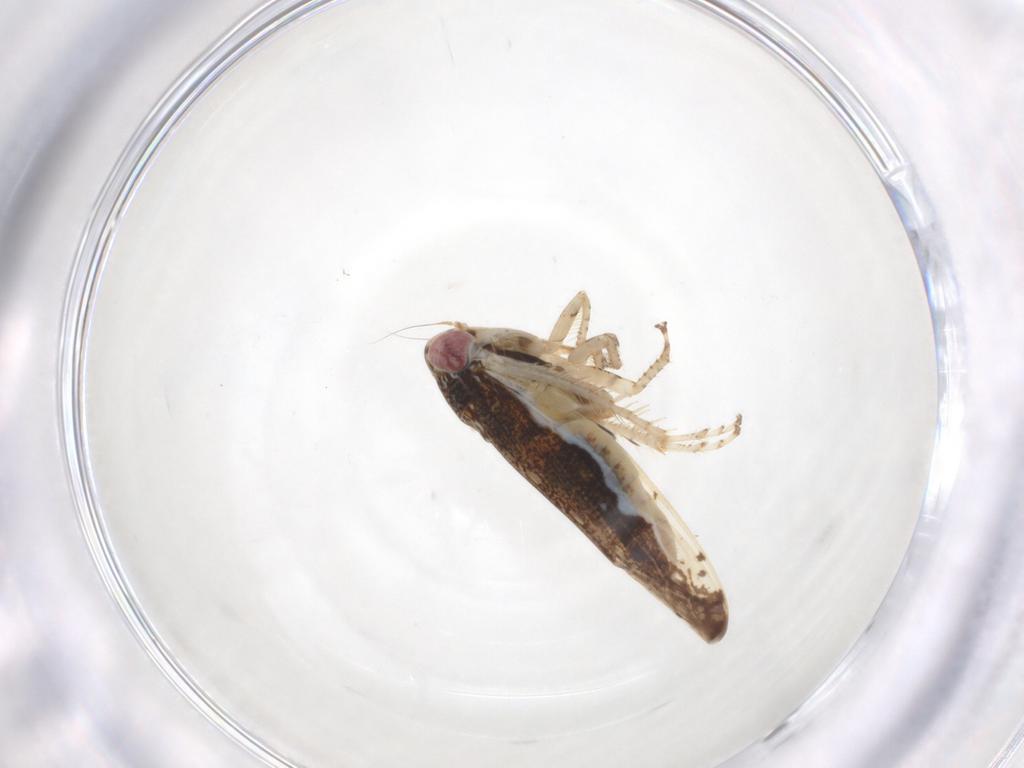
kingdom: Animalia
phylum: Arthropoda
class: Insecta
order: Hemiptera
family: Cicadellidae
